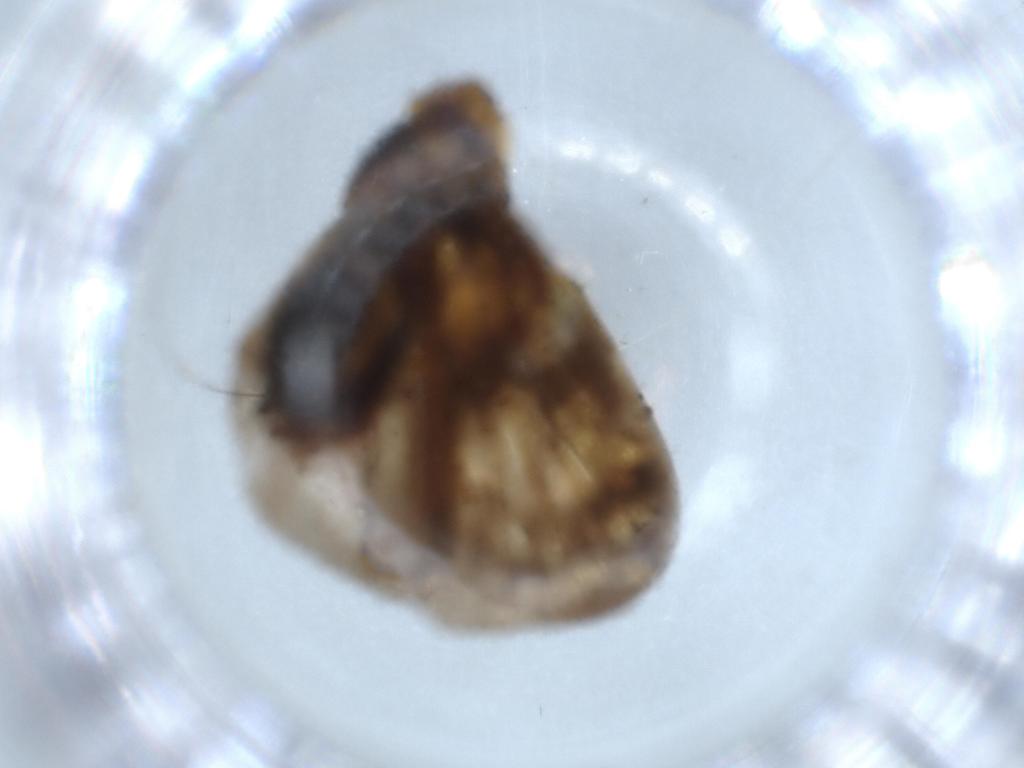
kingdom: Animalia
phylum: Arthropoda
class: Insecta
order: Hemiptera
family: Cixiidae
